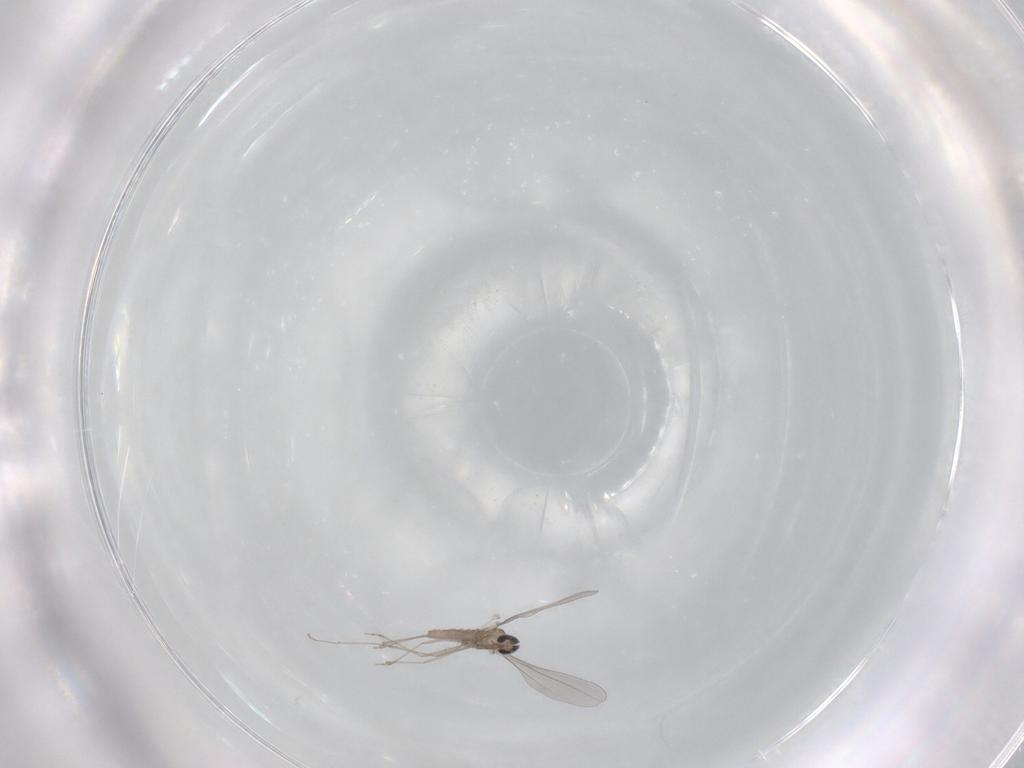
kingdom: Animalia
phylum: Arthropoda
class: Insecta
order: Diptera
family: Cecidomyiidae
